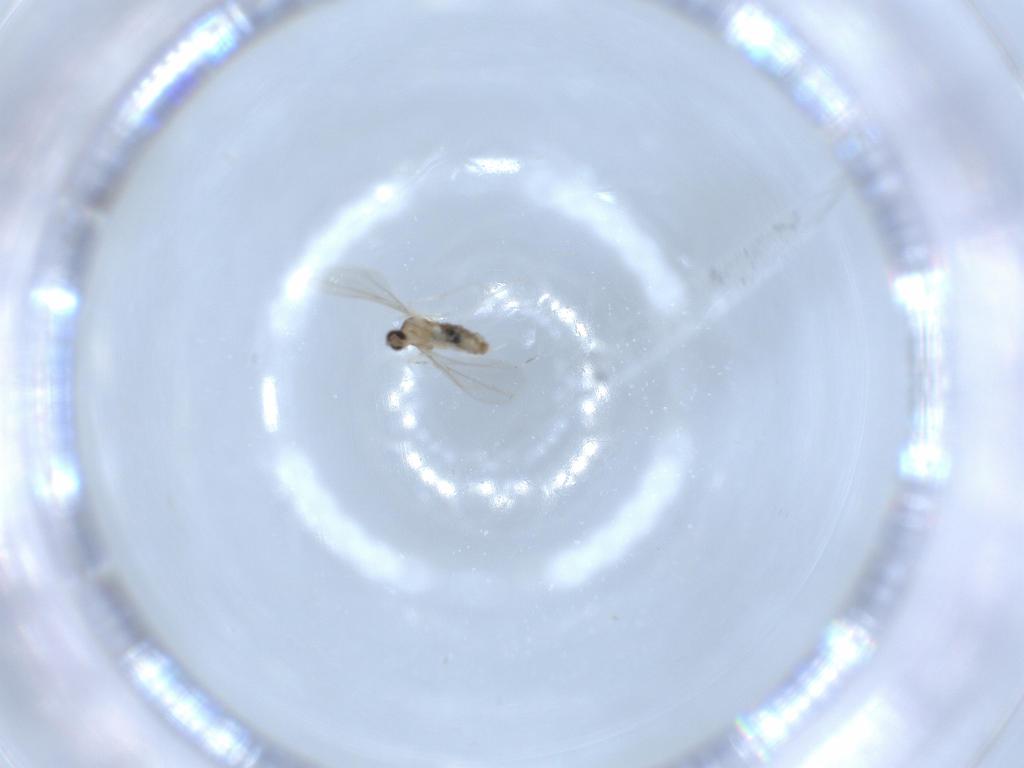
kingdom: Animalia
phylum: Arthropoda
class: Insecta
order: Diptera
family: Cecidomyiidae
